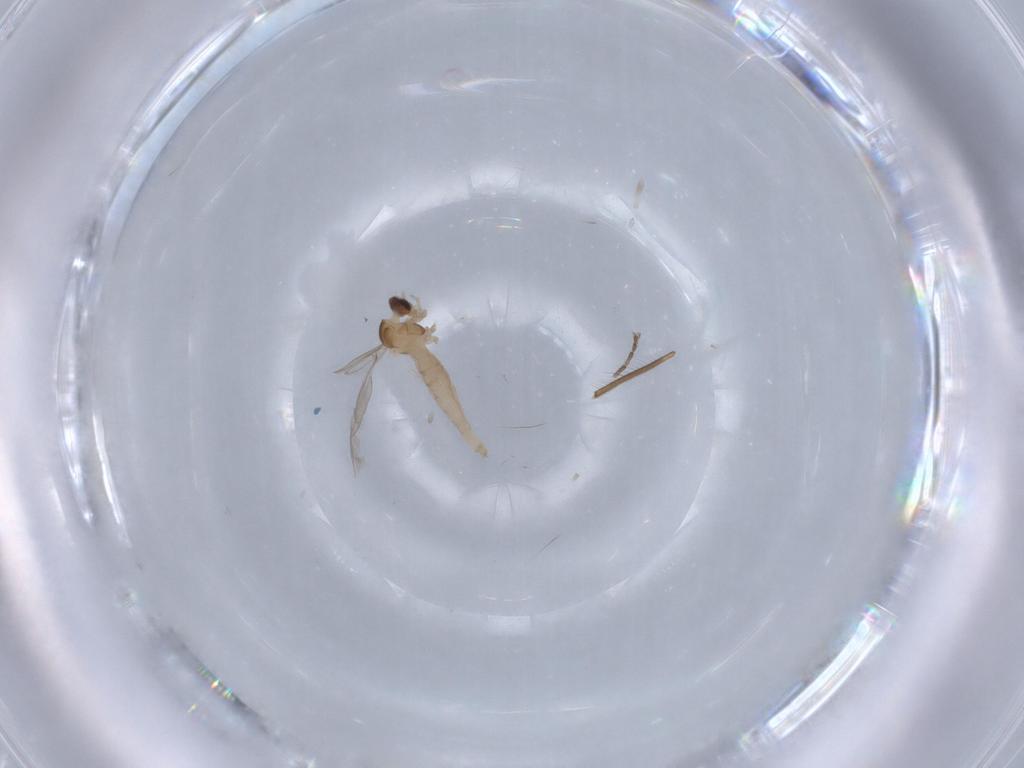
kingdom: Animalia
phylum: Arthropoda
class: Insecta
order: Diptera
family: Cecidomyiidae
